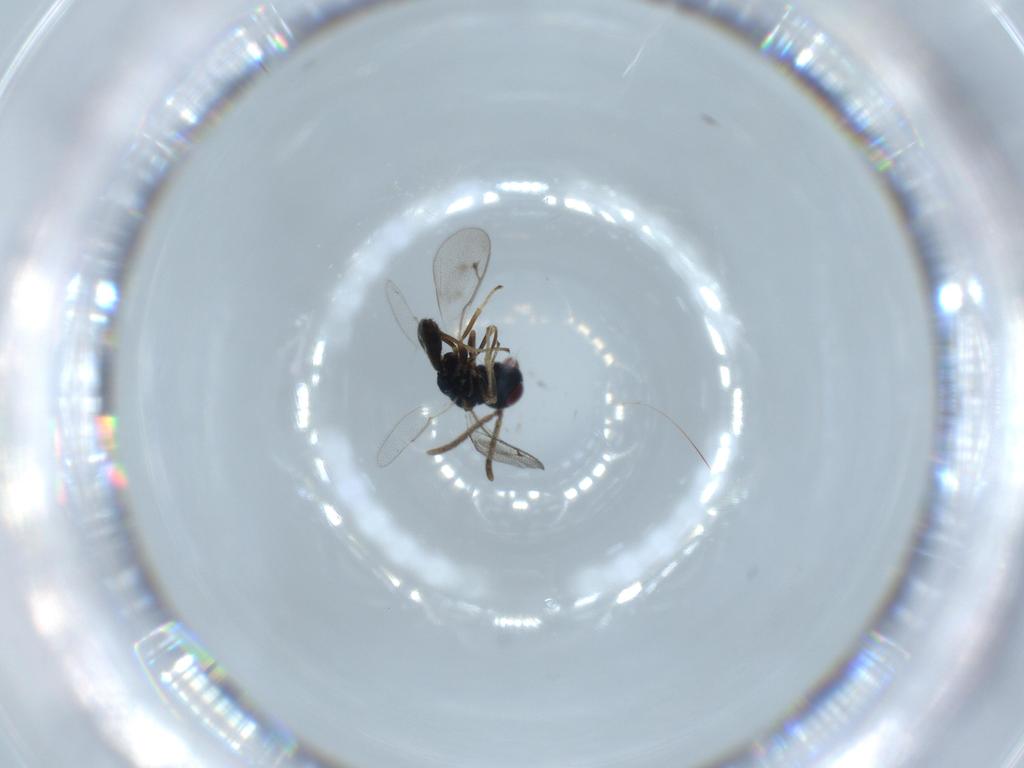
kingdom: Animalia
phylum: Arthropoda
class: Insecta
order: Hymenoptera
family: Pteromalidae
